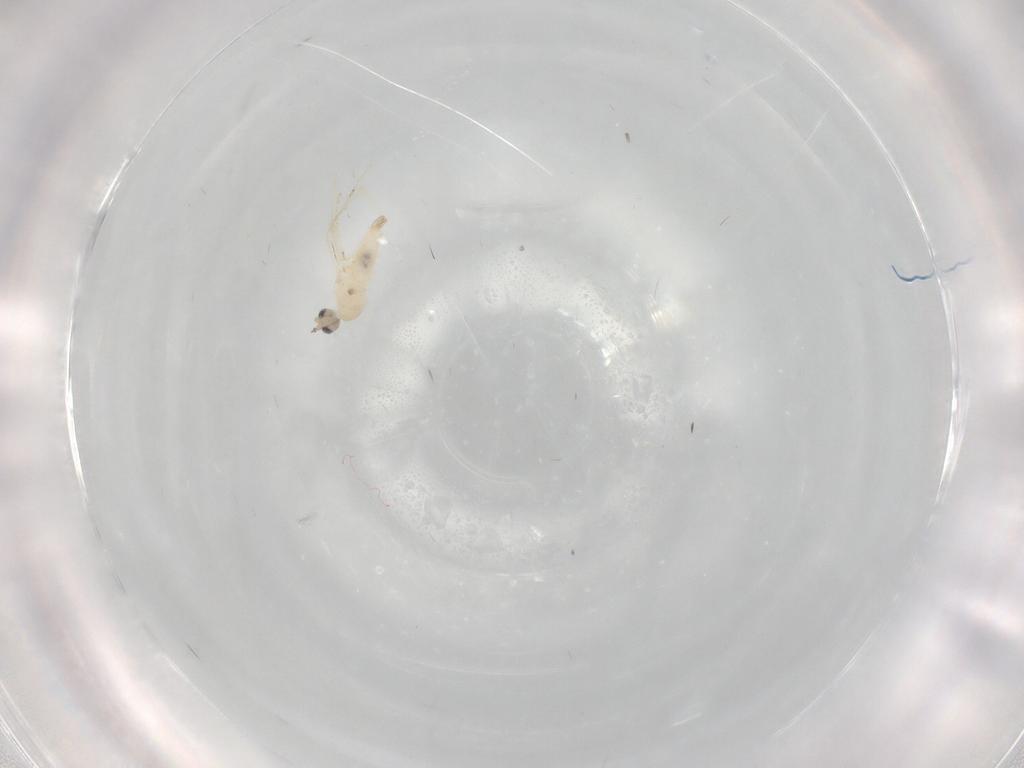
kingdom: Animalia
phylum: Arthropoda
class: Insecta
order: Diptera
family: Cecidomyiidae
